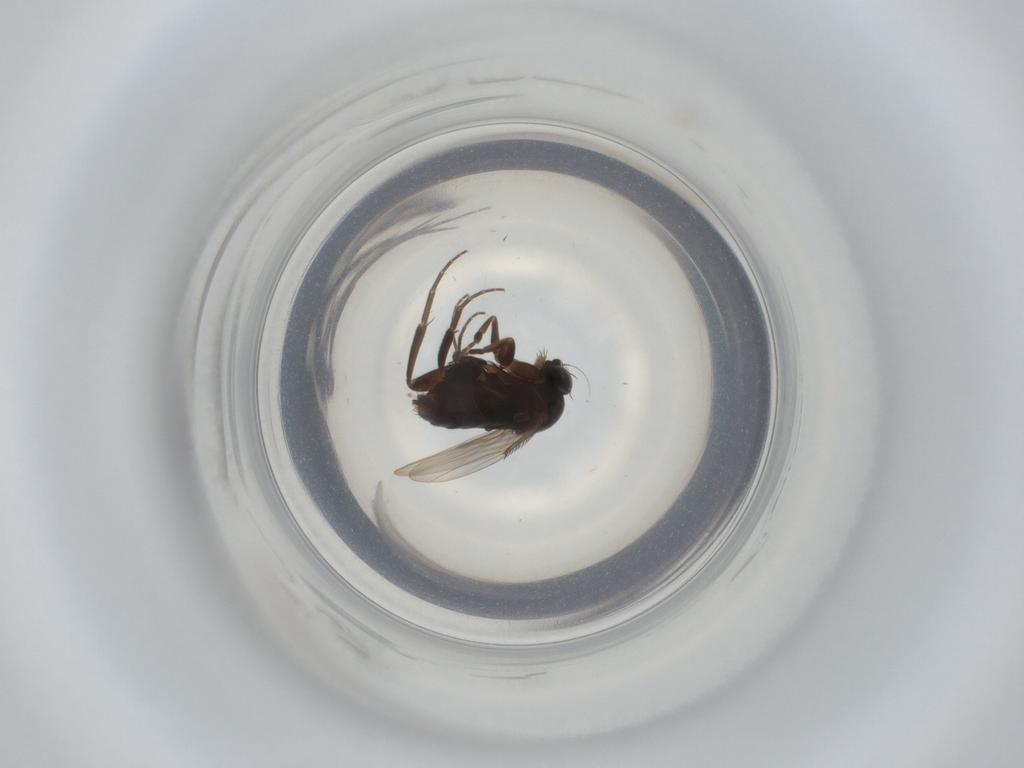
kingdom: Animalia
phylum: Arthropoda
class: Insecta
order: Diptera
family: Phoridae
